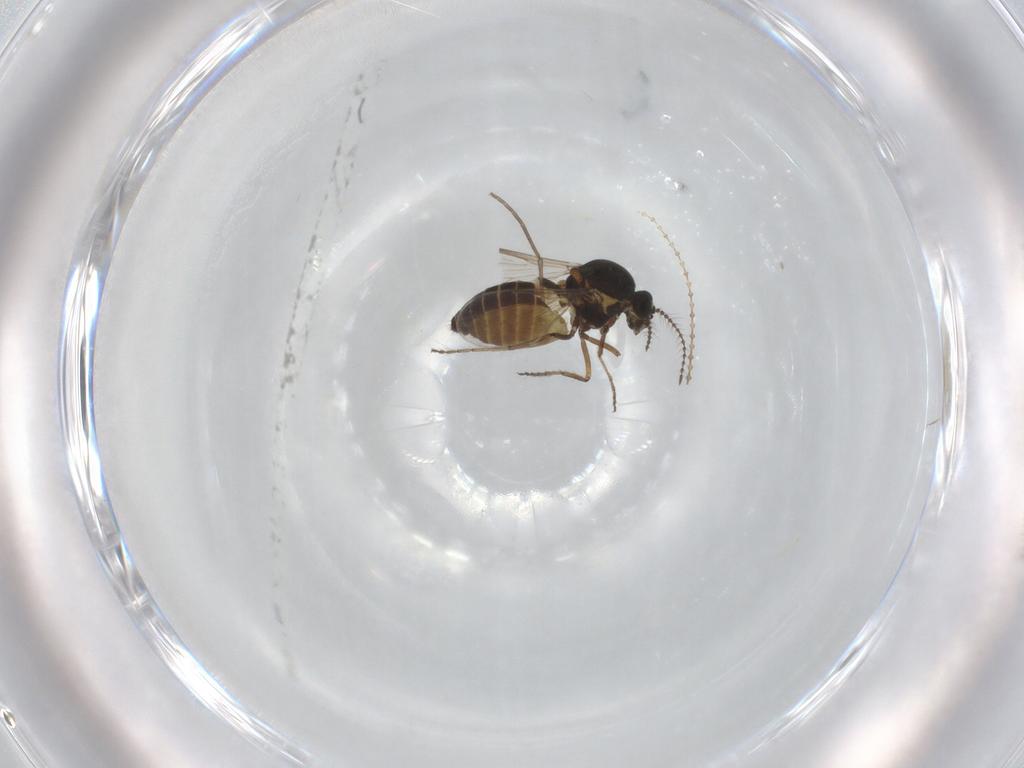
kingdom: Animalia
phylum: Arthropoda
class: Insecta
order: Diptera
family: Ceratopogonidae
